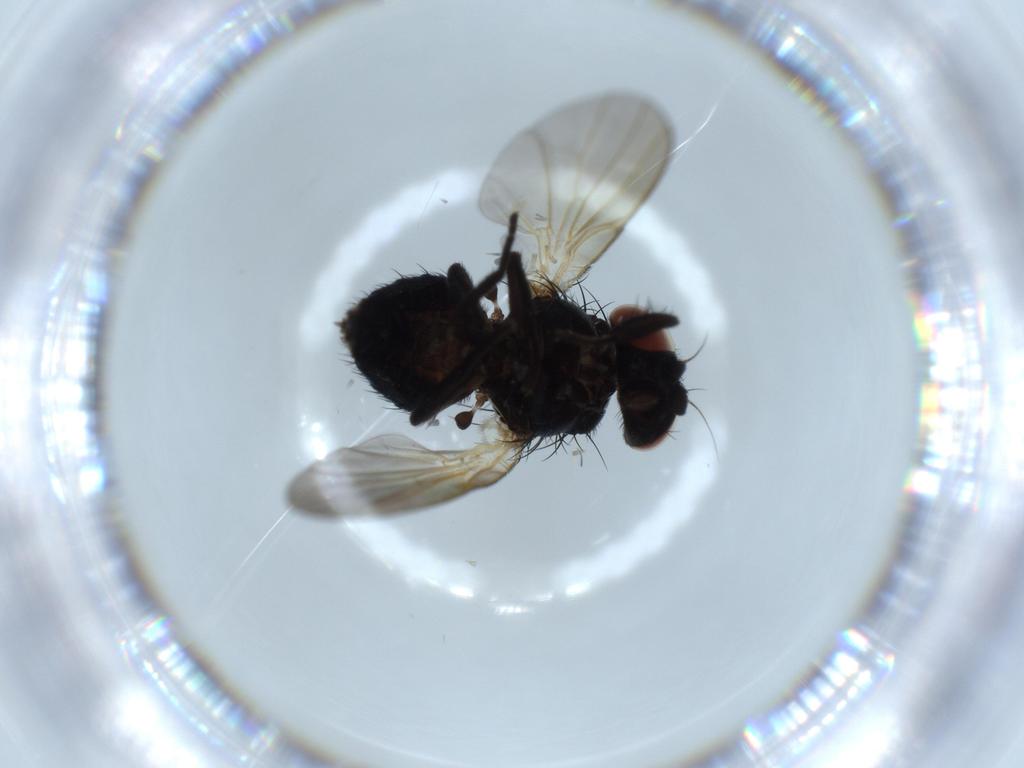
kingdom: Animalia
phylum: Arthropoda
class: Insecta
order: Diptera
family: Lonchaeidae
